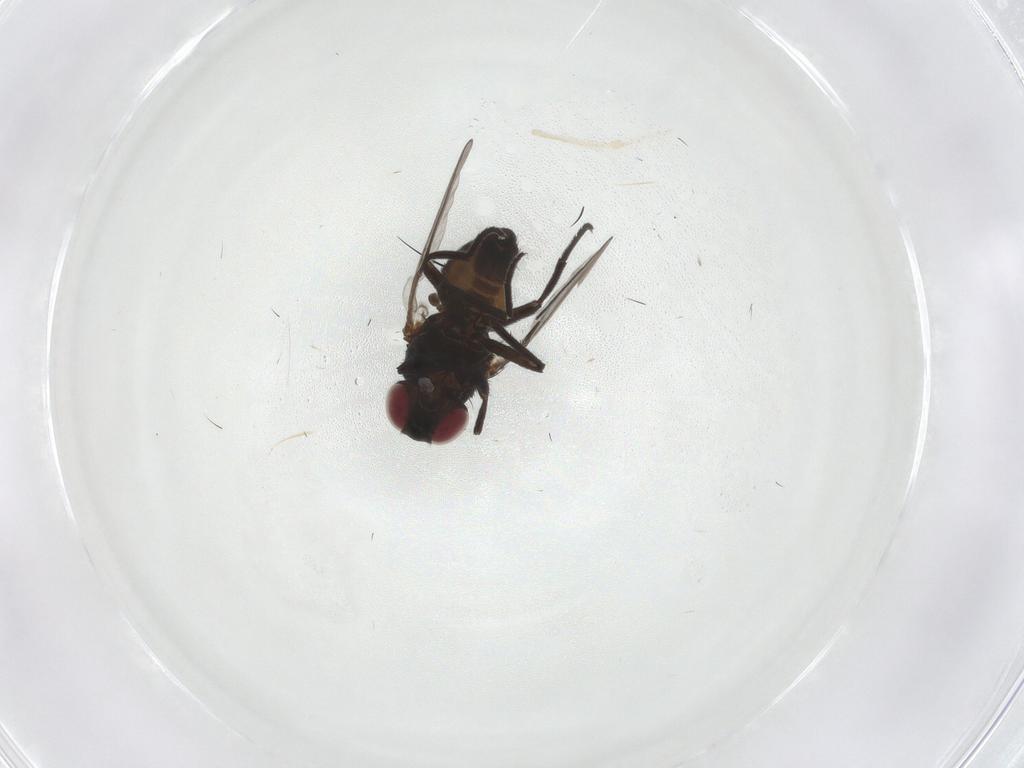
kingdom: Animalia
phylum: Arthropoda
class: Insecta
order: Diptera
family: Agromyzidae
